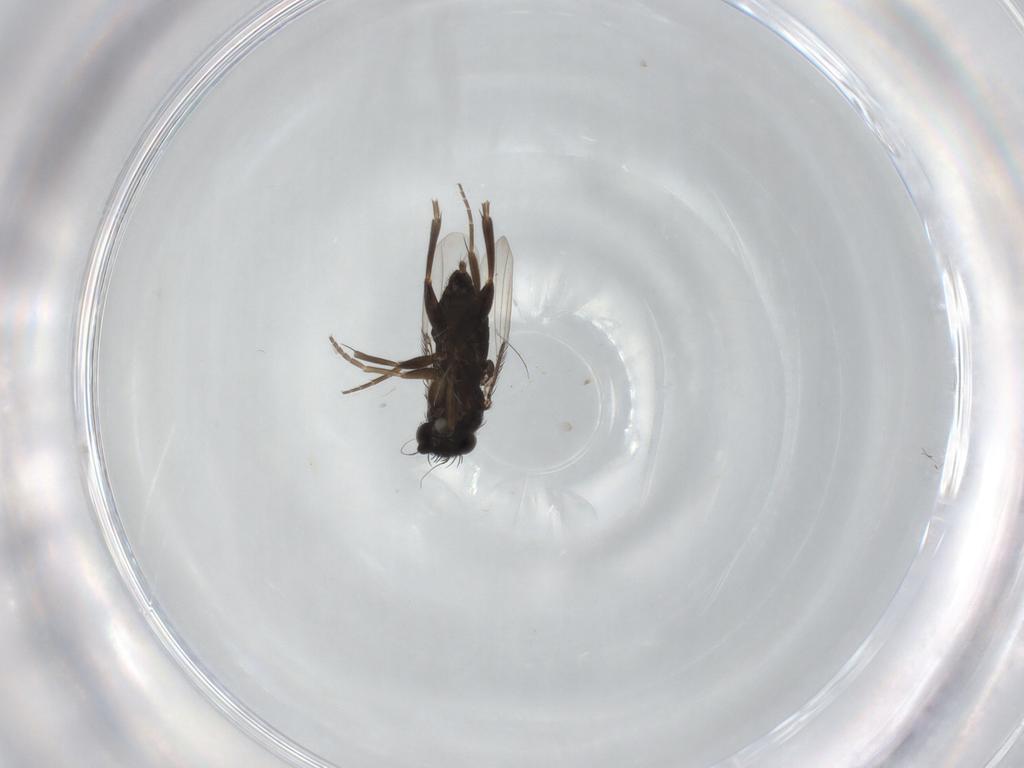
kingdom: Animalia
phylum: Arthropoda
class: Insecta
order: Diptera
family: Phoridae
